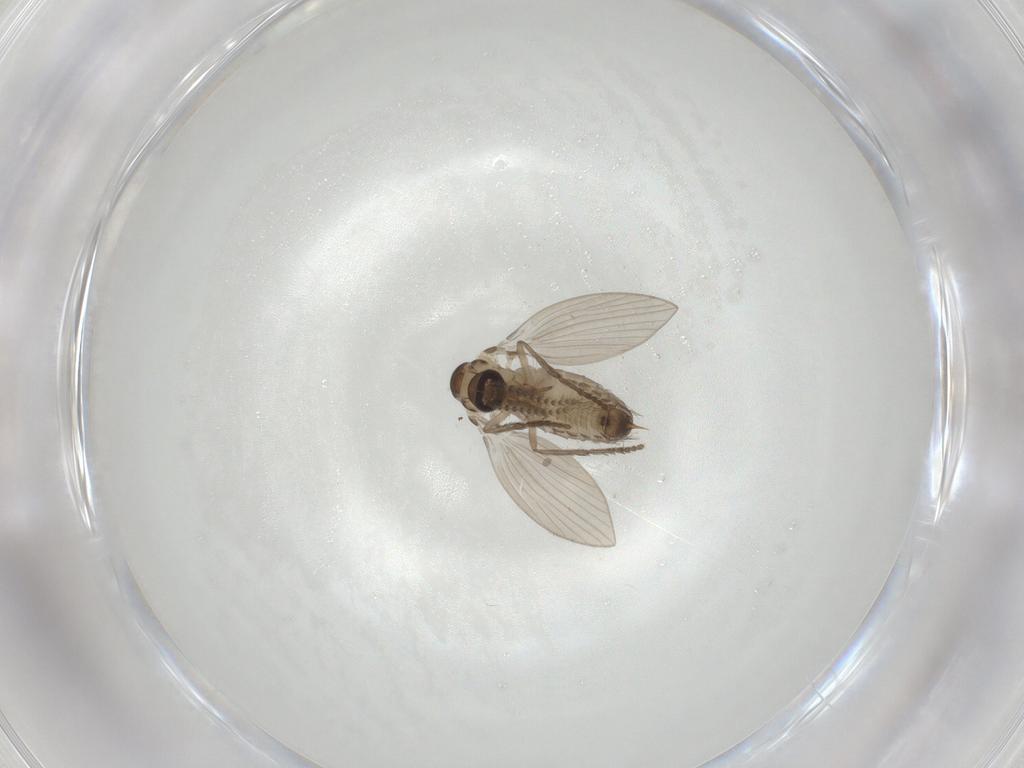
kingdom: Animalia
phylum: Arthropoda
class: Insecta
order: Diptera
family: Psychodidae
